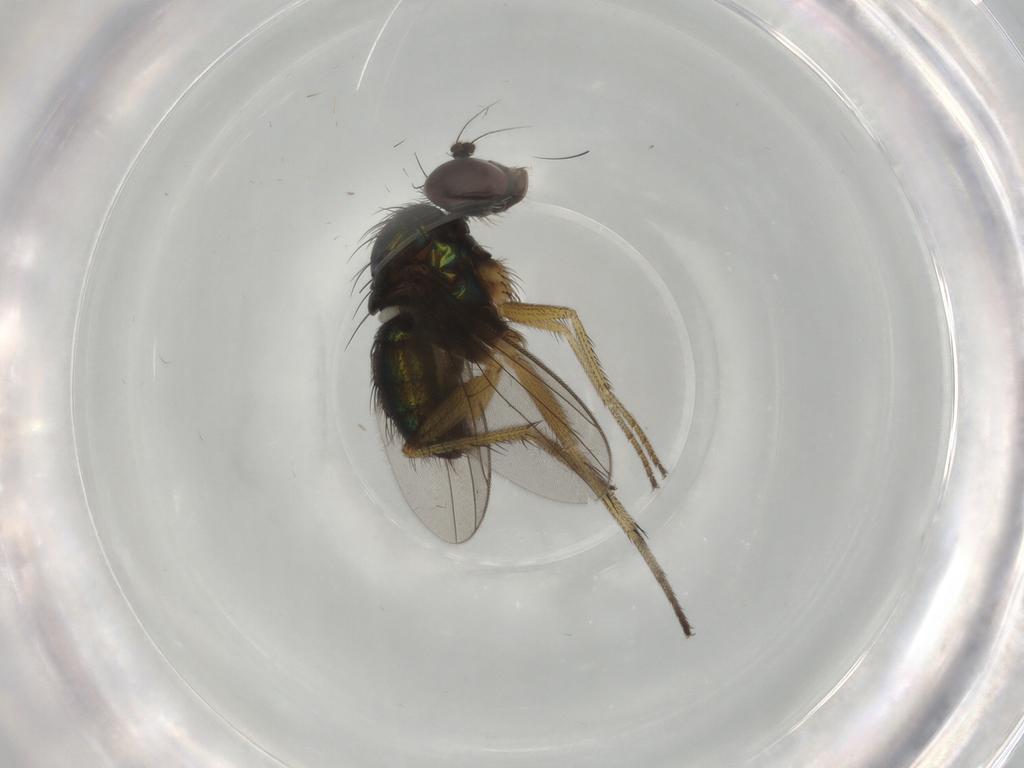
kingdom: Animalia
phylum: Arthropoda
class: Insecta
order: Diptera
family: Dolichopodidae
